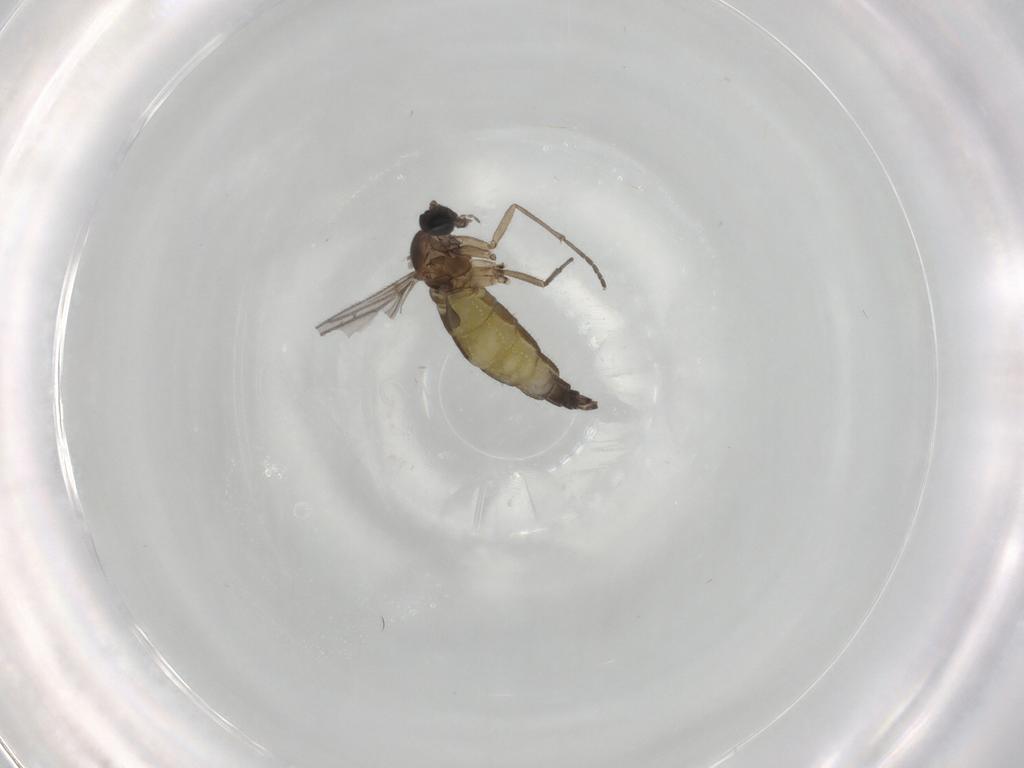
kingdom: Animalia
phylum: Arthropoda
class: Insecta
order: Diptera
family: Sciaridae
